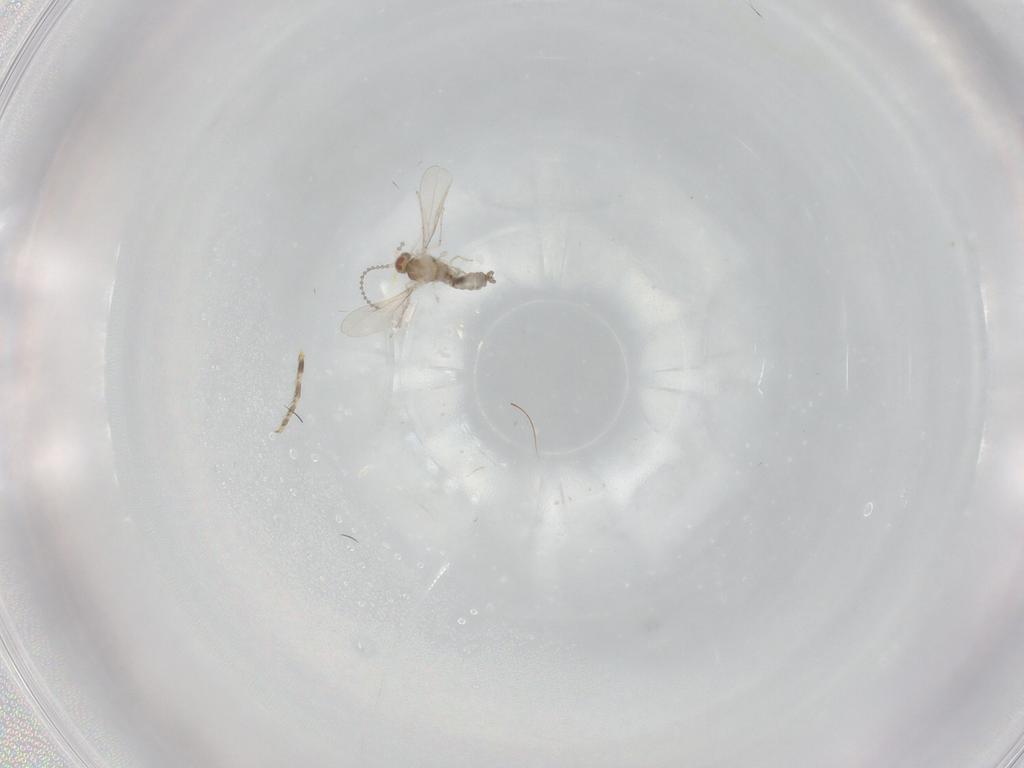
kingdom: Animalia
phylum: Arthropoda
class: Insecta
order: Diptera
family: Cecidomyiidae
